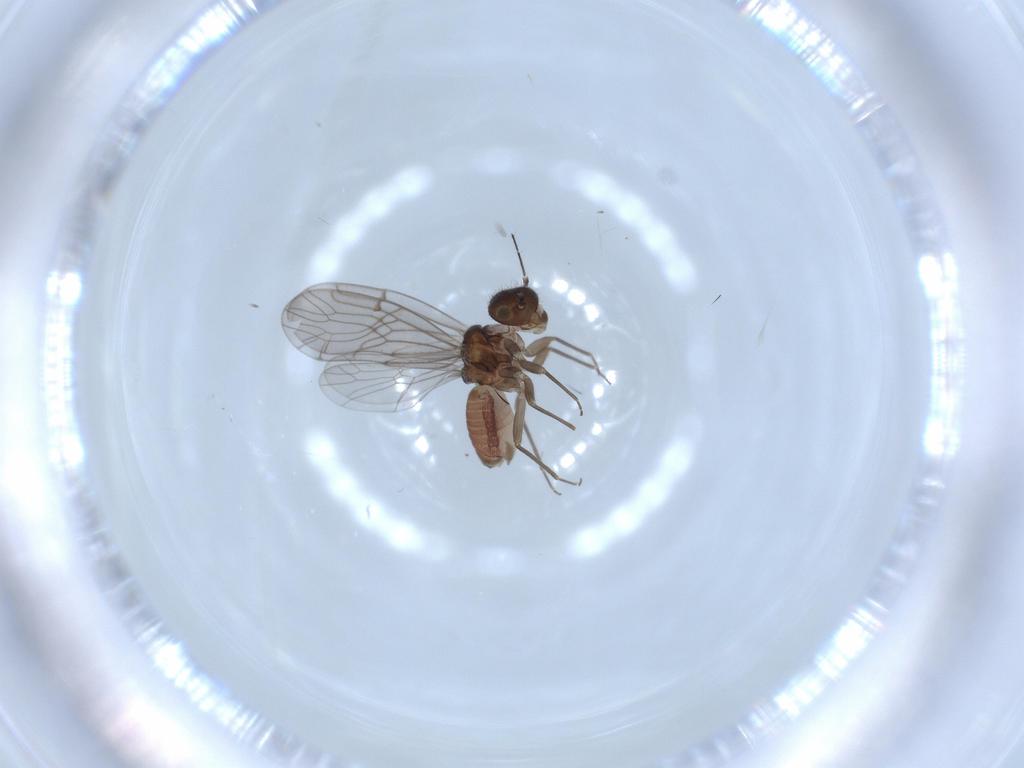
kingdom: Animalia
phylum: Arthropoda
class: Insecta
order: Psocodea
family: Ectopsocidae
